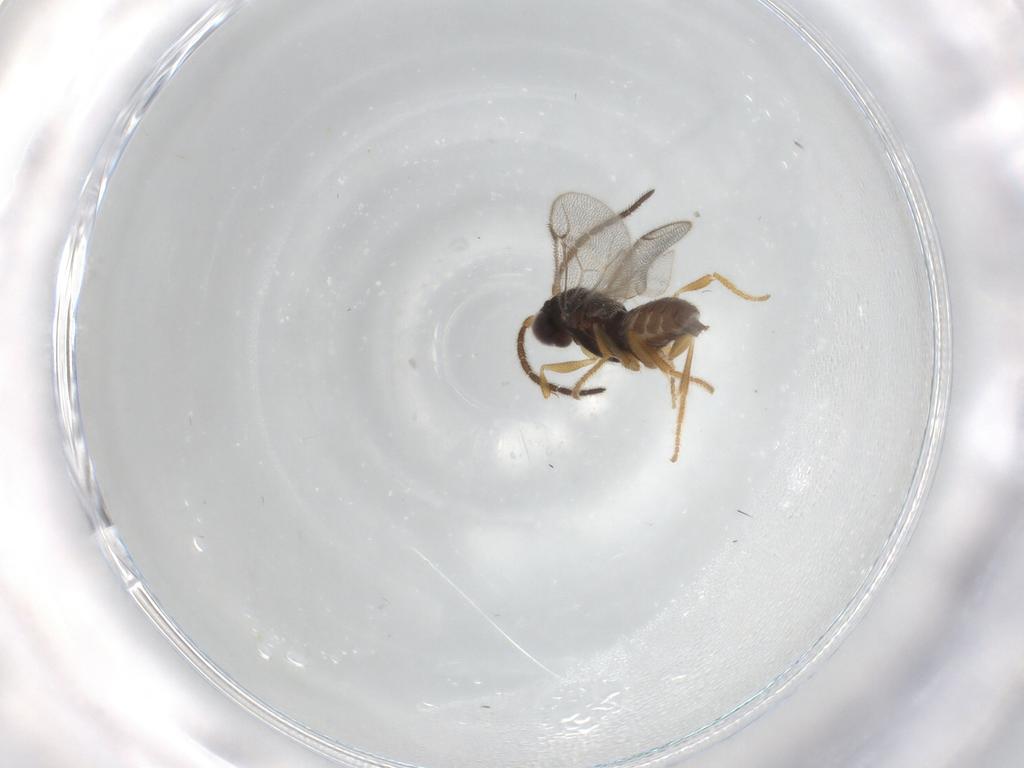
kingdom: Animalia
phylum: Arthropoda
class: Insecta
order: Hymenoptera
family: Dryinidae
